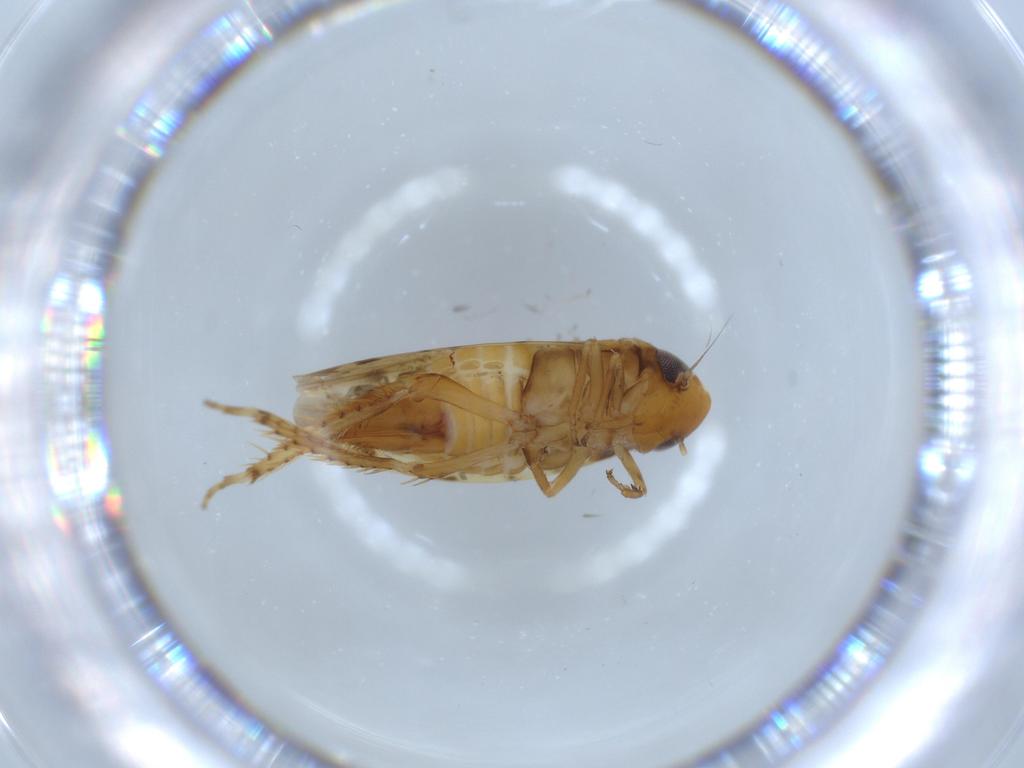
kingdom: Animalia
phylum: Arthropoda
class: Insecta
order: Hemiptera
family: Cicadellidae
